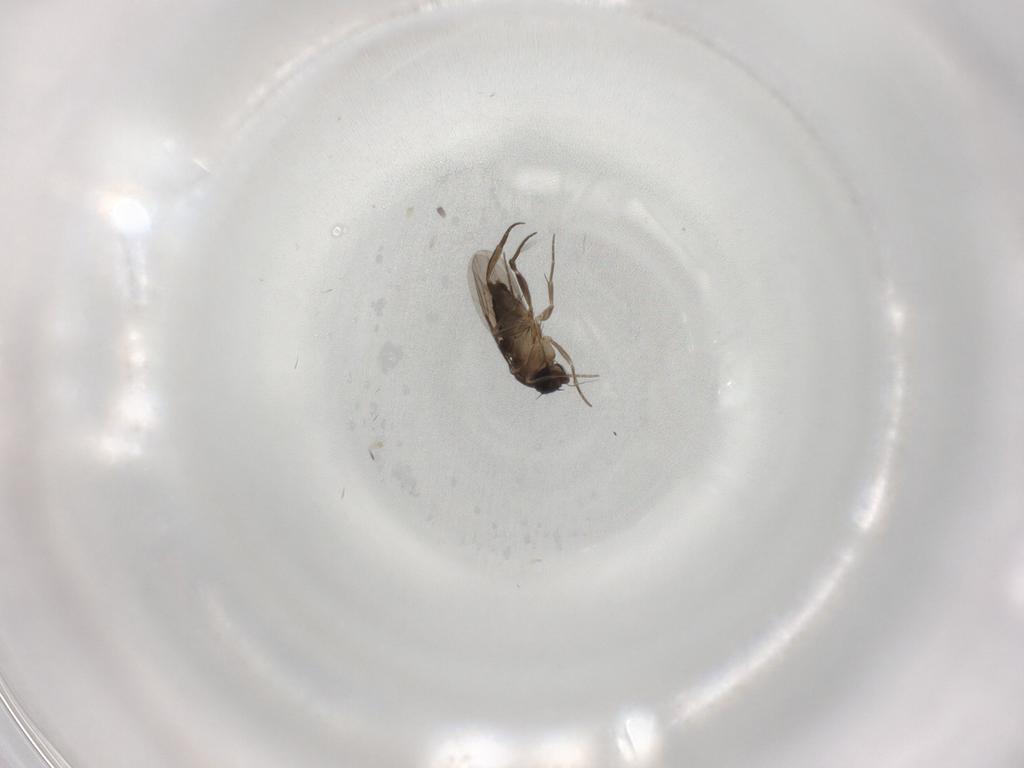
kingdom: Animalia
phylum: Arthropoda
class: Insecta
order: Diptera
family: Phoridae
